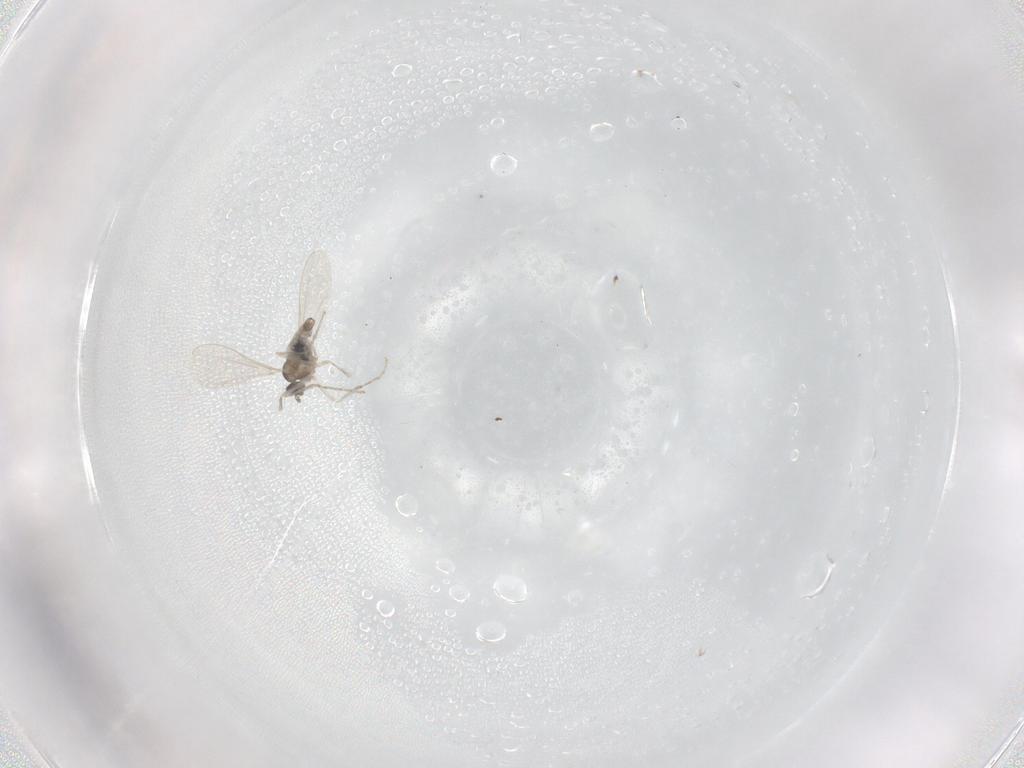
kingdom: Animalia
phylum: Arthropoda
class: Insecta
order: Diptera
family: Cecidomyiidae
